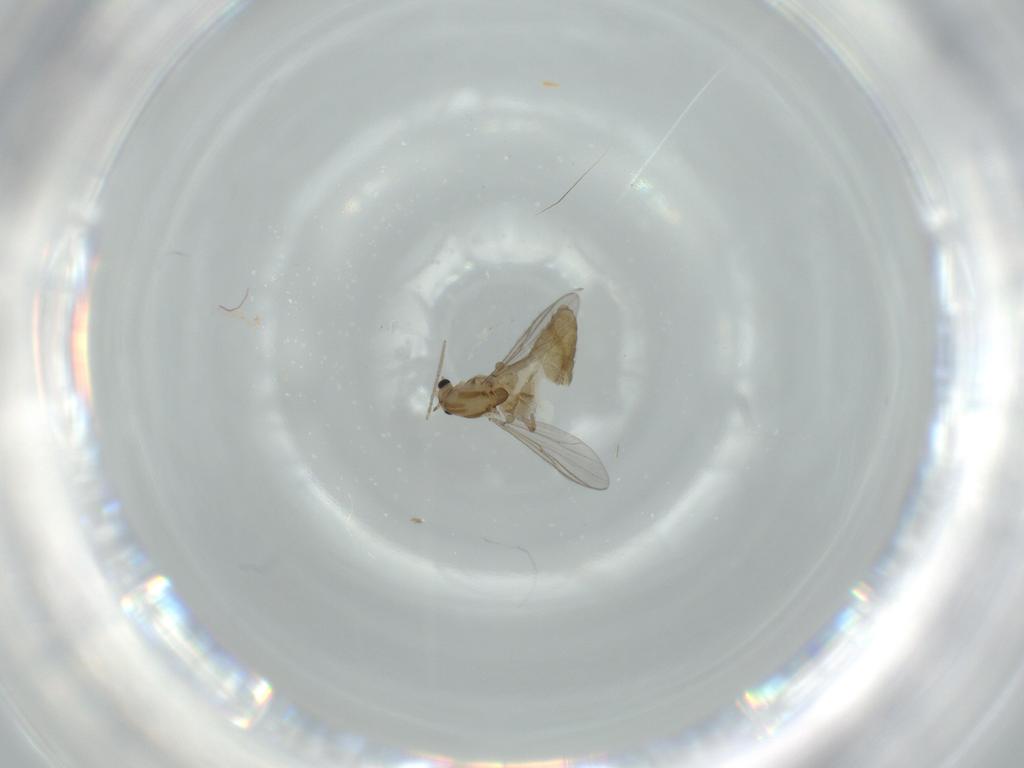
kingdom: Animalia
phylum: Arthropoda
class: Insecta
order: Diptera
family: Chironomidae
